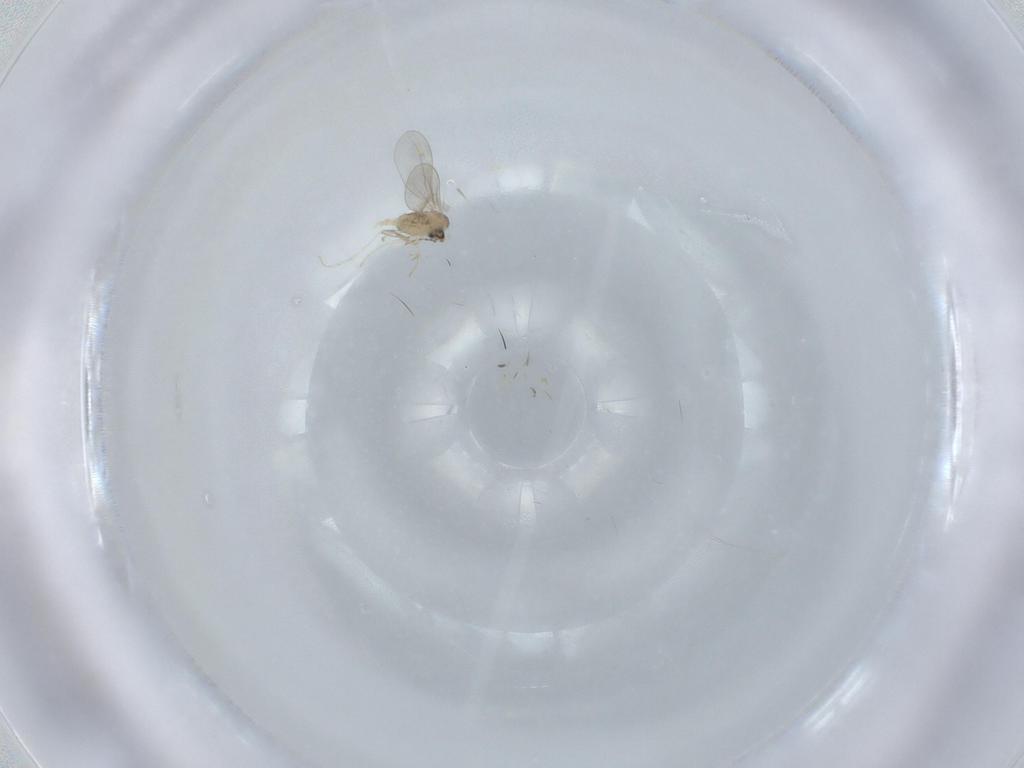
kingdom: Animalia
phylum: Arthropoda
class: Insecta
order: Diptera
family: Cecidomyiidae
